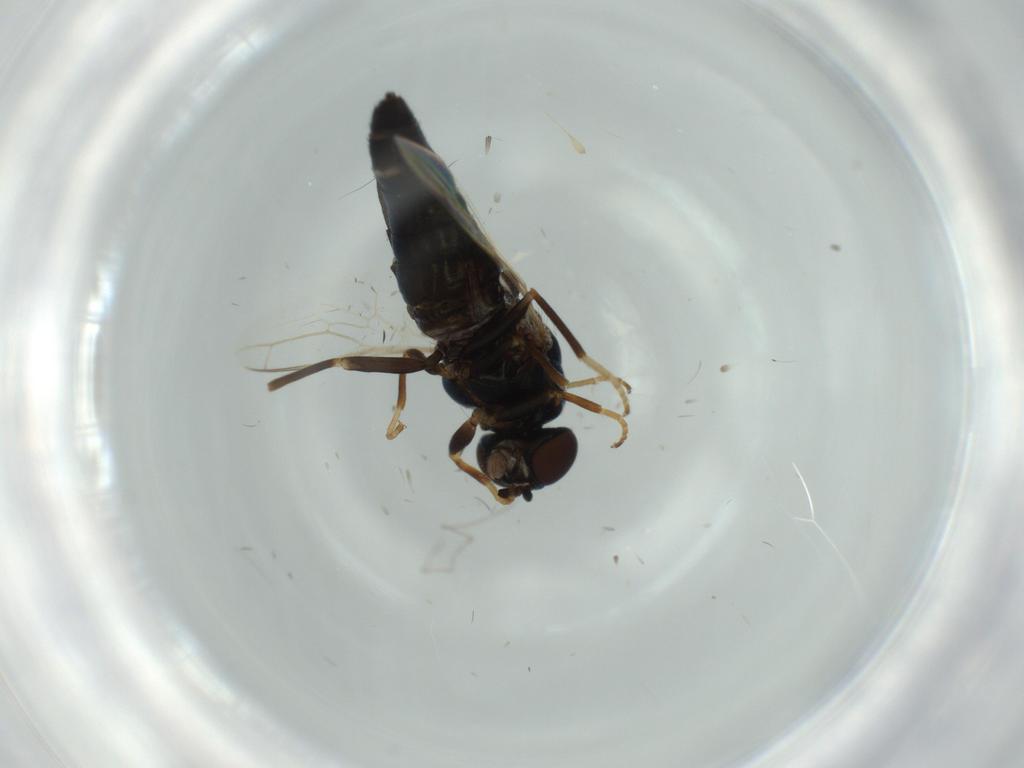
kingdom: Animalia
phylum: Arthropoda
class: Insecta
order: Diptera
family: Scenopinidae
